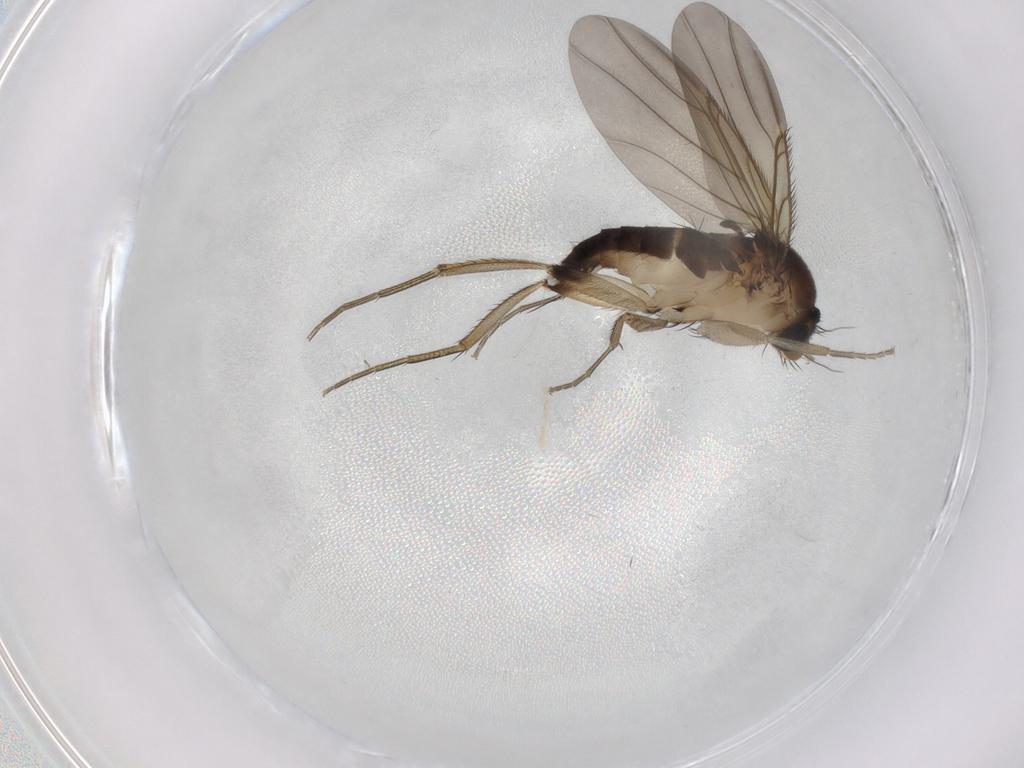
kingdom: Animalia
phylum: Arthropoda
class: Insecta
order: Diptera
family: Phoridae
